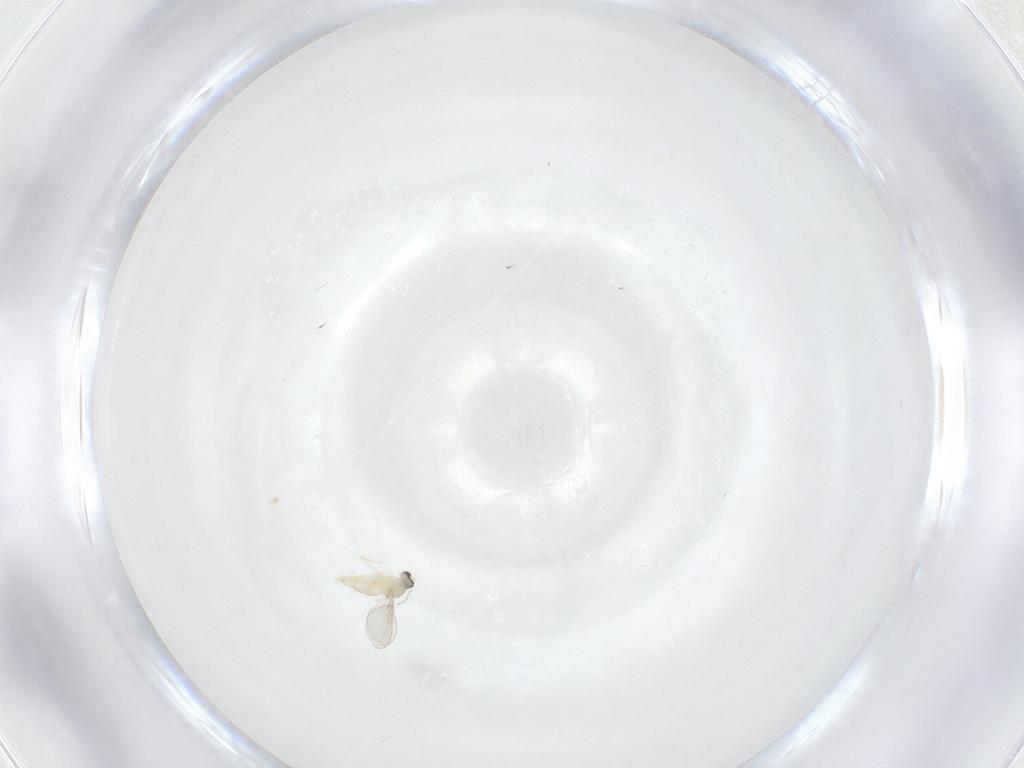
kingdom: Animalia
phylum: Arthropoda
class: Insecta
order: Diptera
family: Cecidomyiidae
